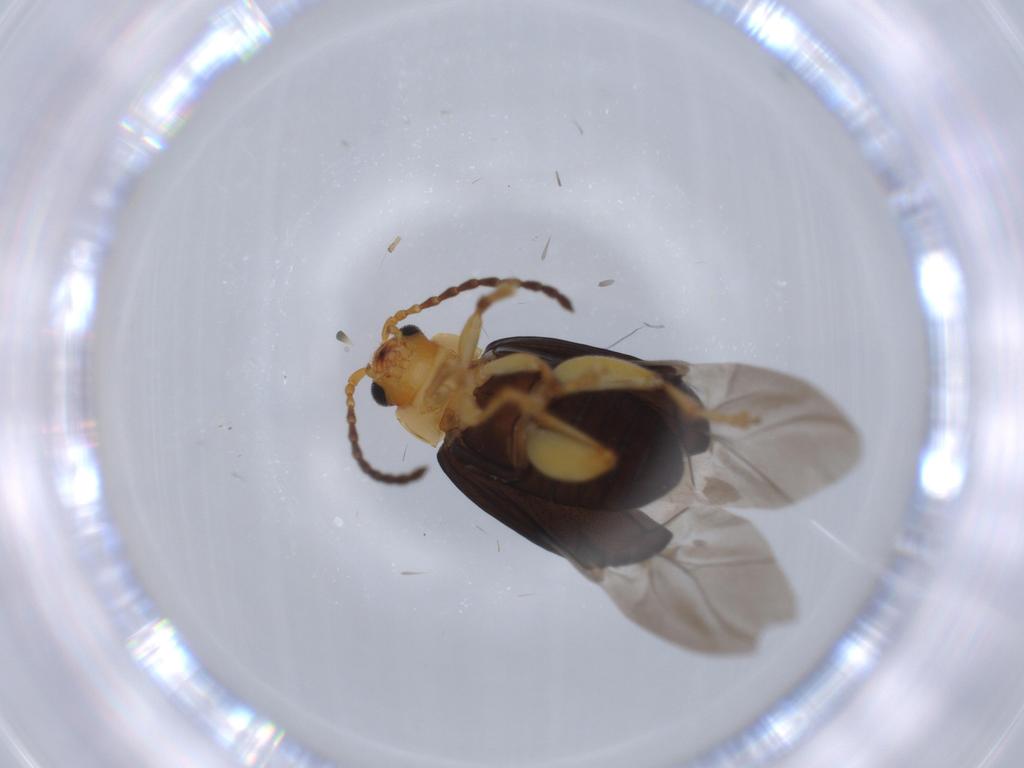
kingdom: Animalia
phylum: Arthropoda
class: Insecta
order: Coleoptera
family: Chrysomelidae
